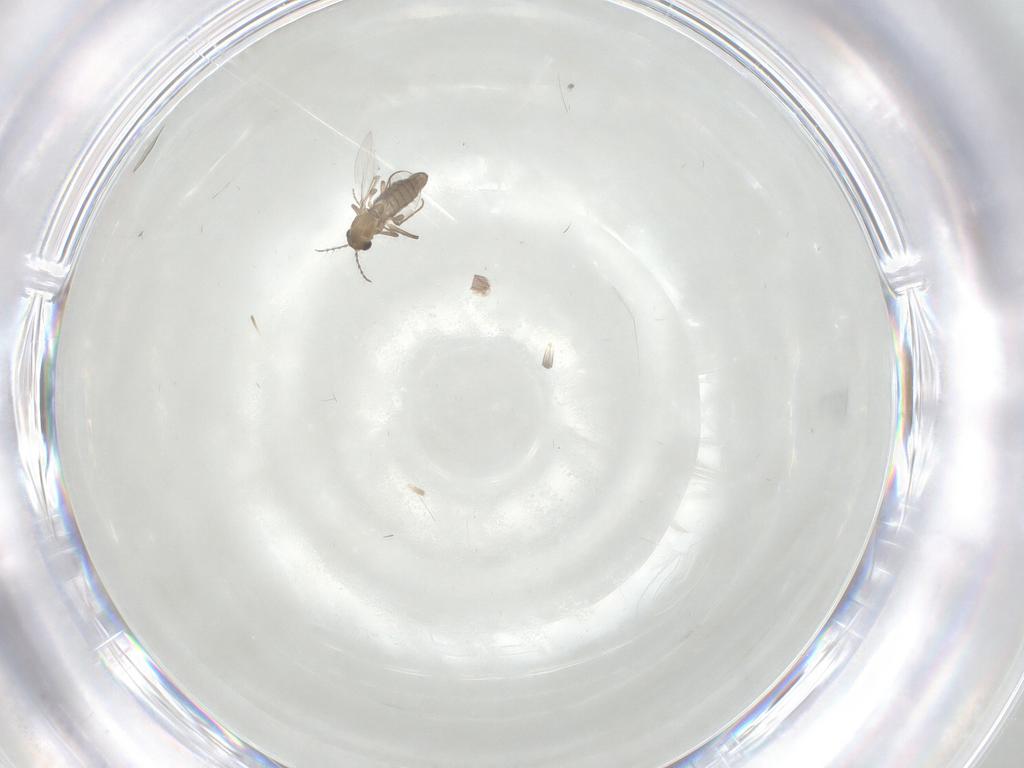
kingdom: Animalia
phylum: Arthropoda
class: Insecta
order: Diptera
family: Chironomidae
